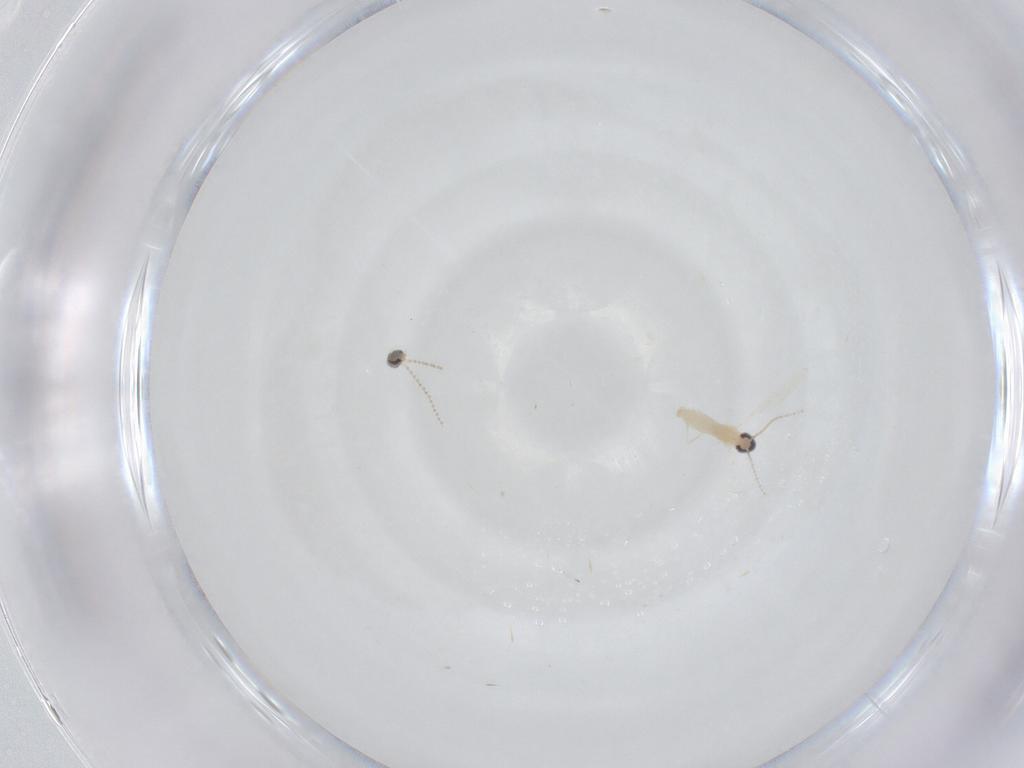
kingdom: Animalia
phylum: Arthropoda
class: Insecta
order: Diptera
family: Cecidomyiidae
